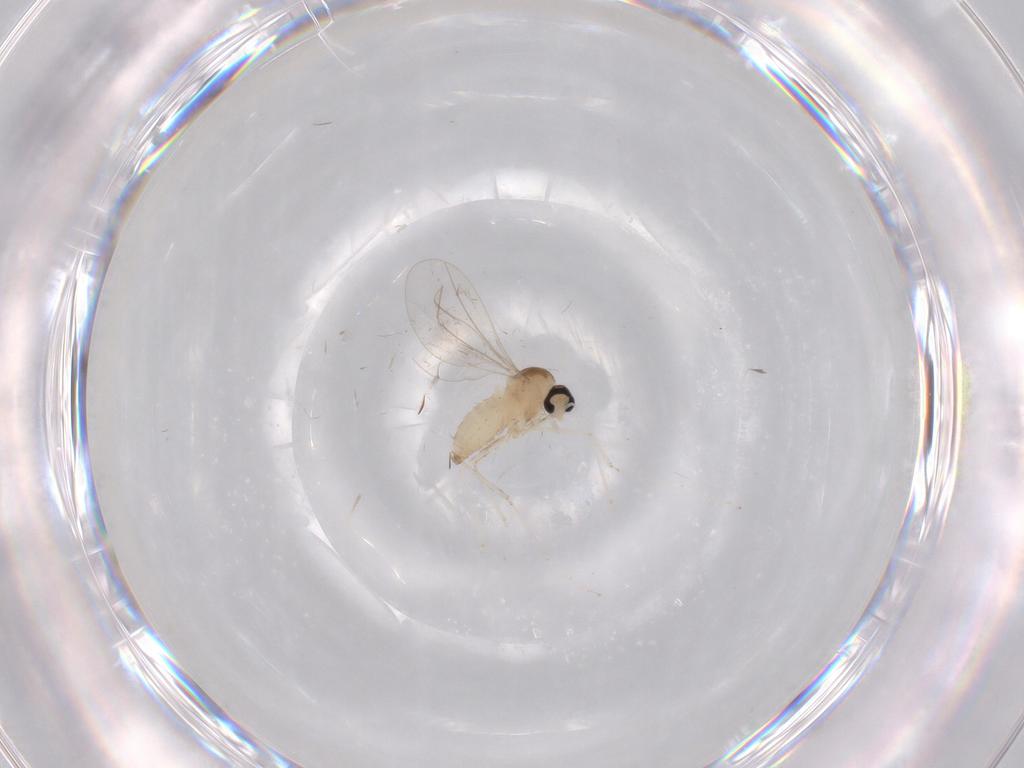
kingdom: Animalia
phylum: Arthropoda
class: Insecta
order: Diptera
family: Cecidomyiidae
